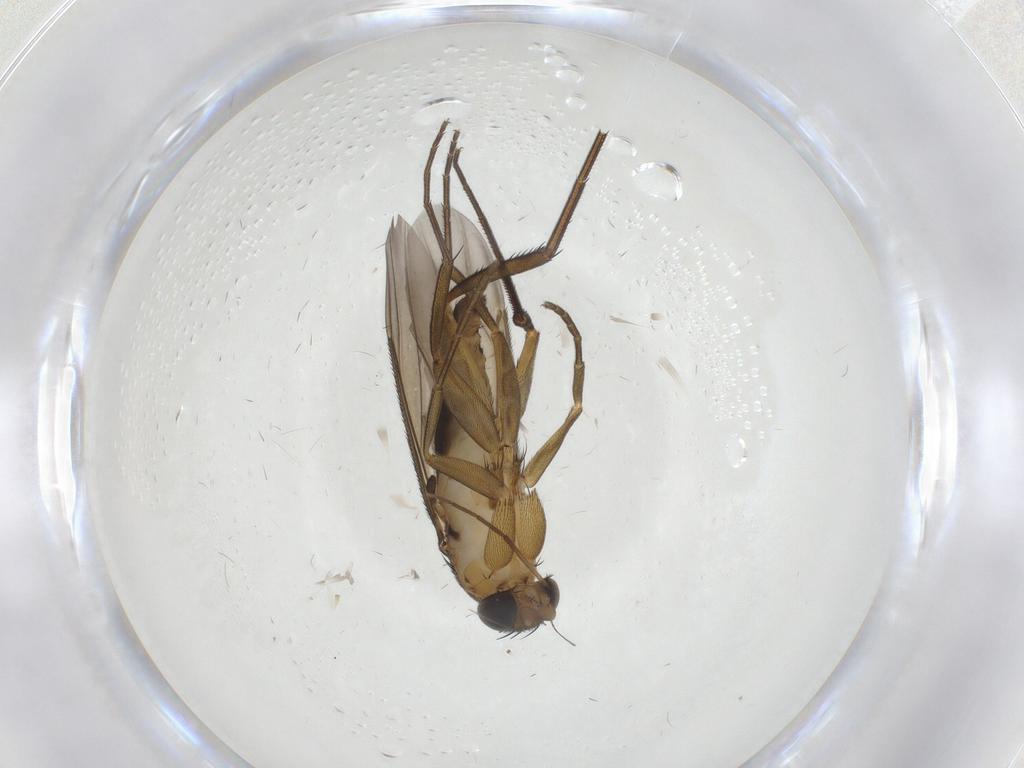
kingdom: Animalia
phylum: Arthropoda
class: Insecta
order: Diptera
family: Chironomidae
